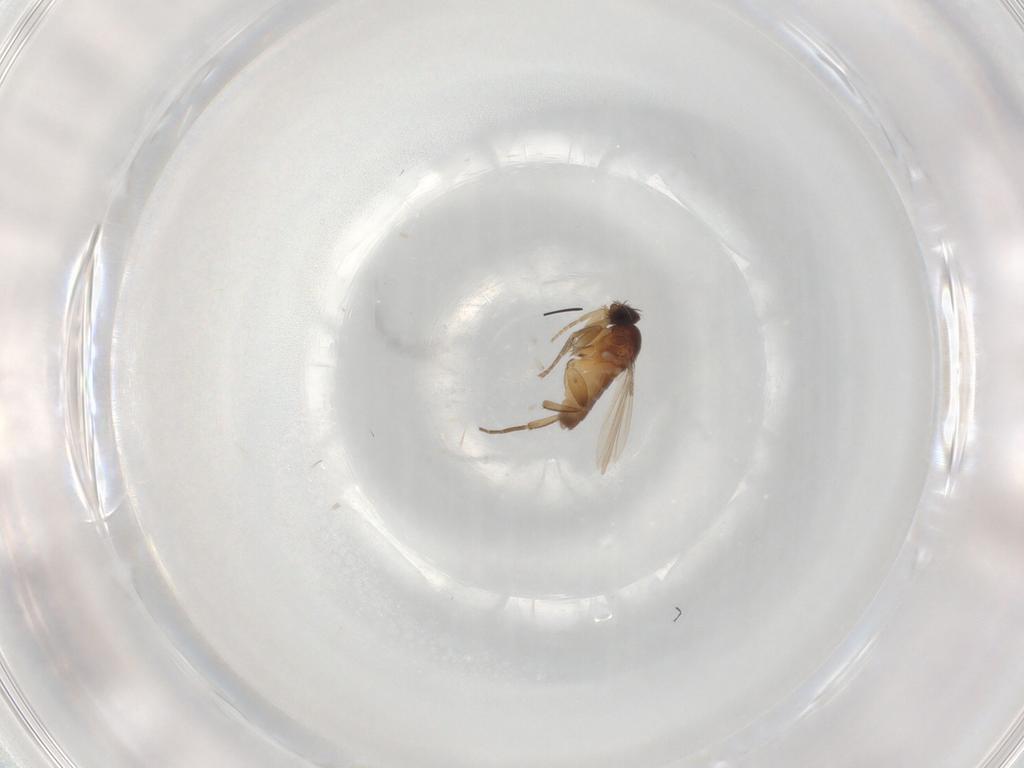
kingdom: Animalia
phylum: Arthropoda
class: Insecta
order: Diptera
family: Phoridae
